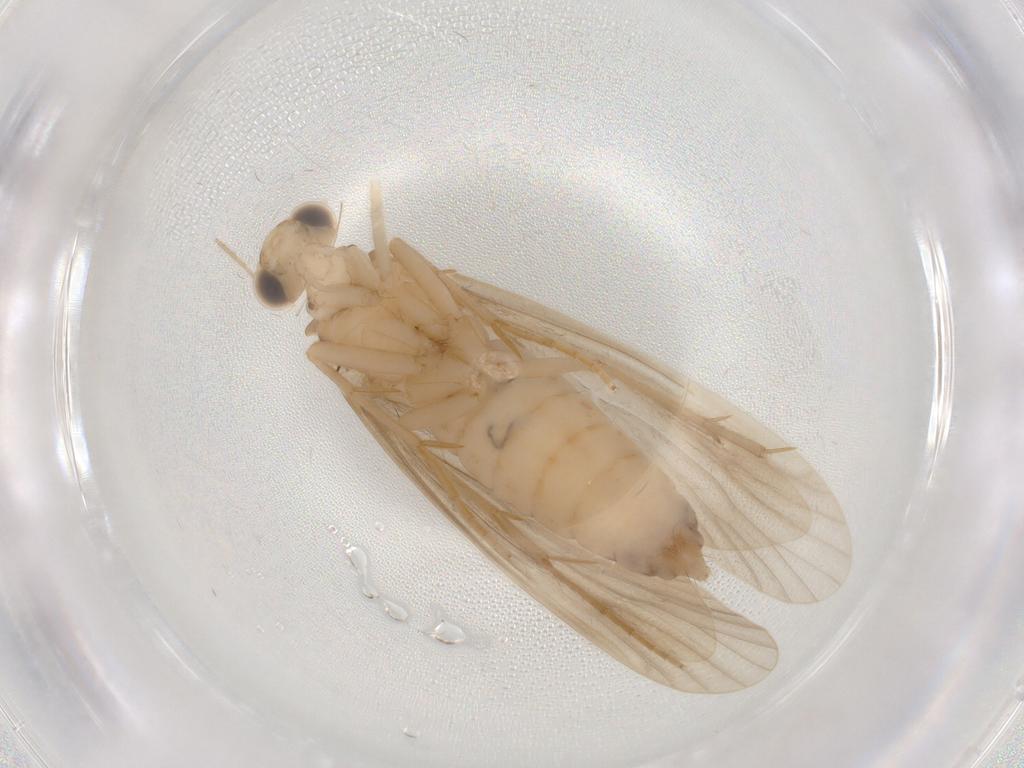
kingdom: Animalia
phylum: Arthropoda
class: Insecta
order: Trichoptera
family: Ecnomidae
